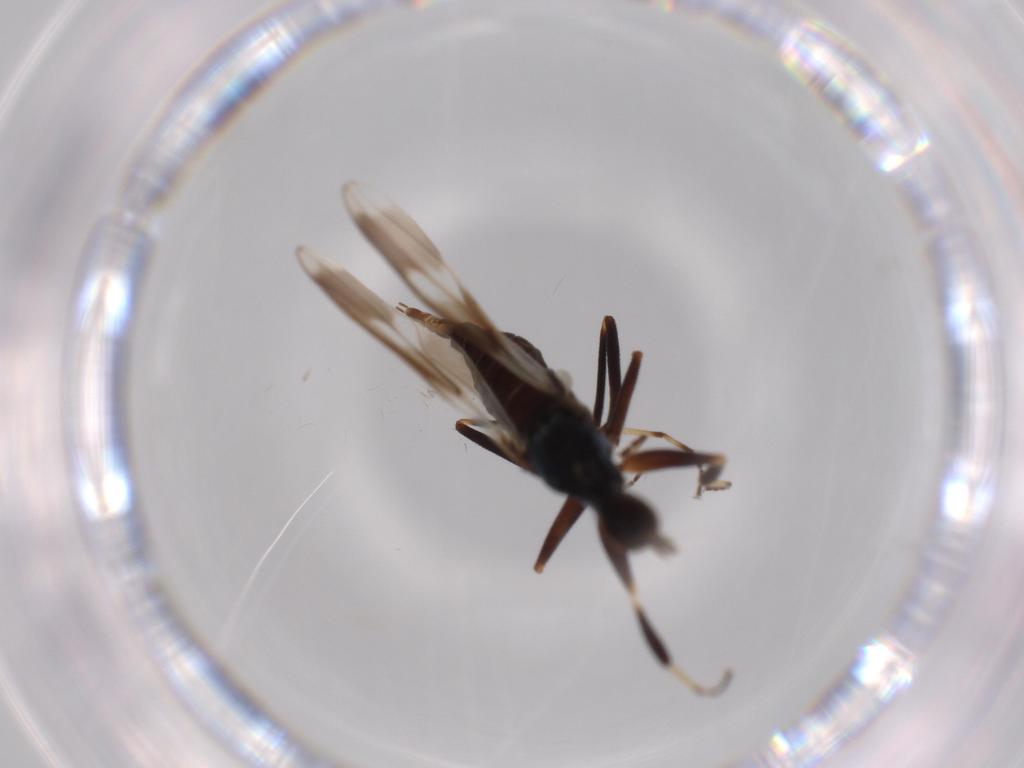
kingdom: Animalia
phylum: Arthropoda
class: Insecta
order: Diptera
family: Hybotidae
